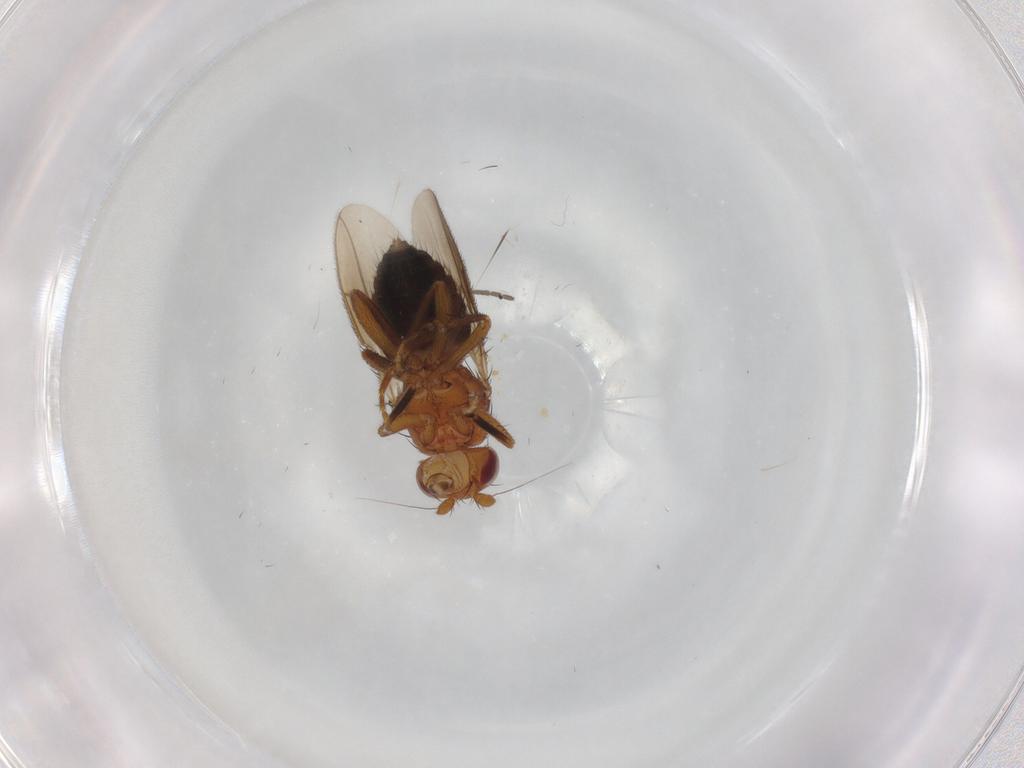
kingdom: Animalia
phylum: Arthropoda
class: Insecta
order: Diptera
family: Sphaeroceridae
